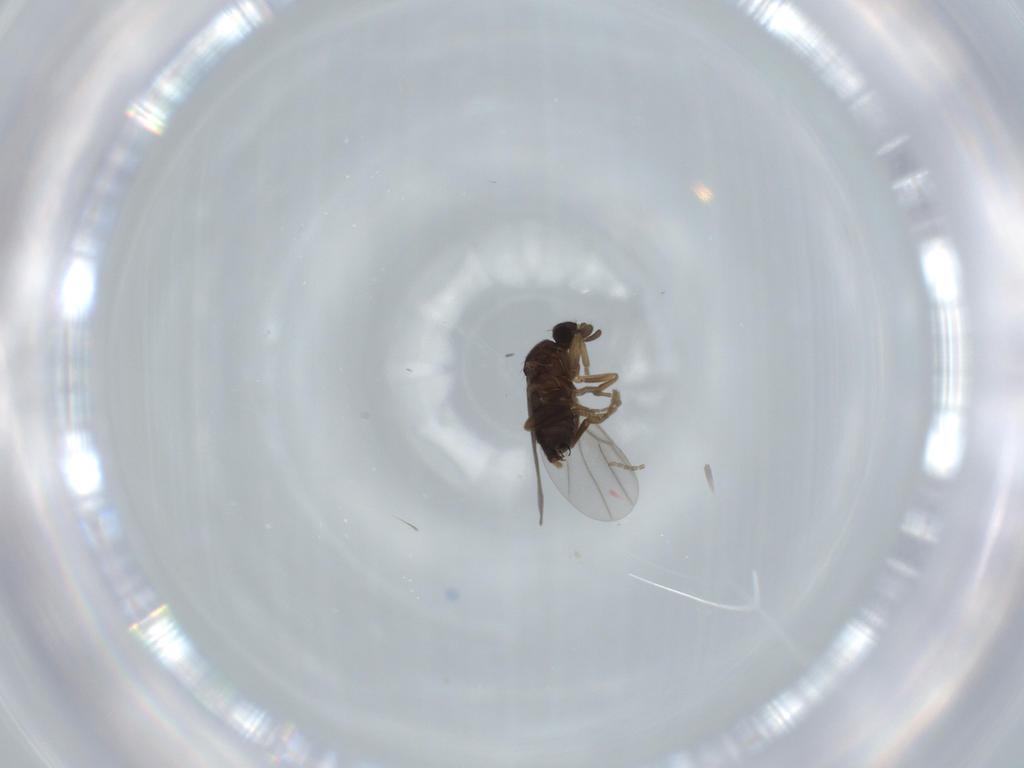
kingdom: Animalia
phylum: Arthropoda
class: Insecta
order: Diptera
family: Phoridae
